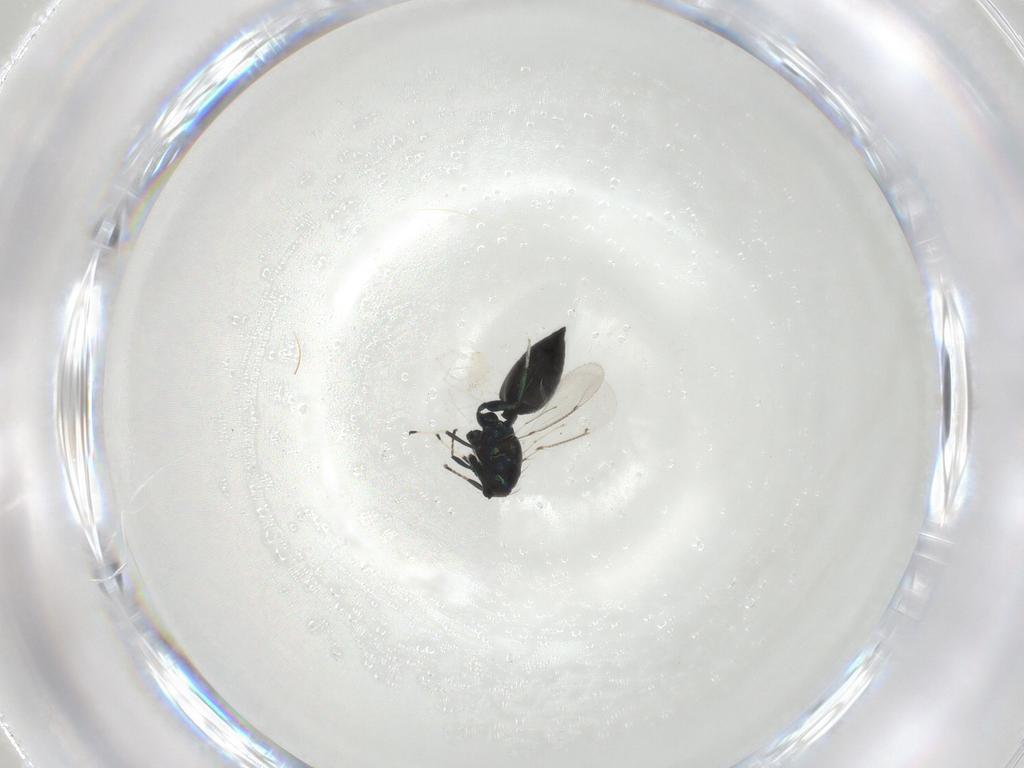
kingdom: Animalia
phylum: Arthropoda
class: Insecta
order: Hymenoptera
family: Eulophidae
